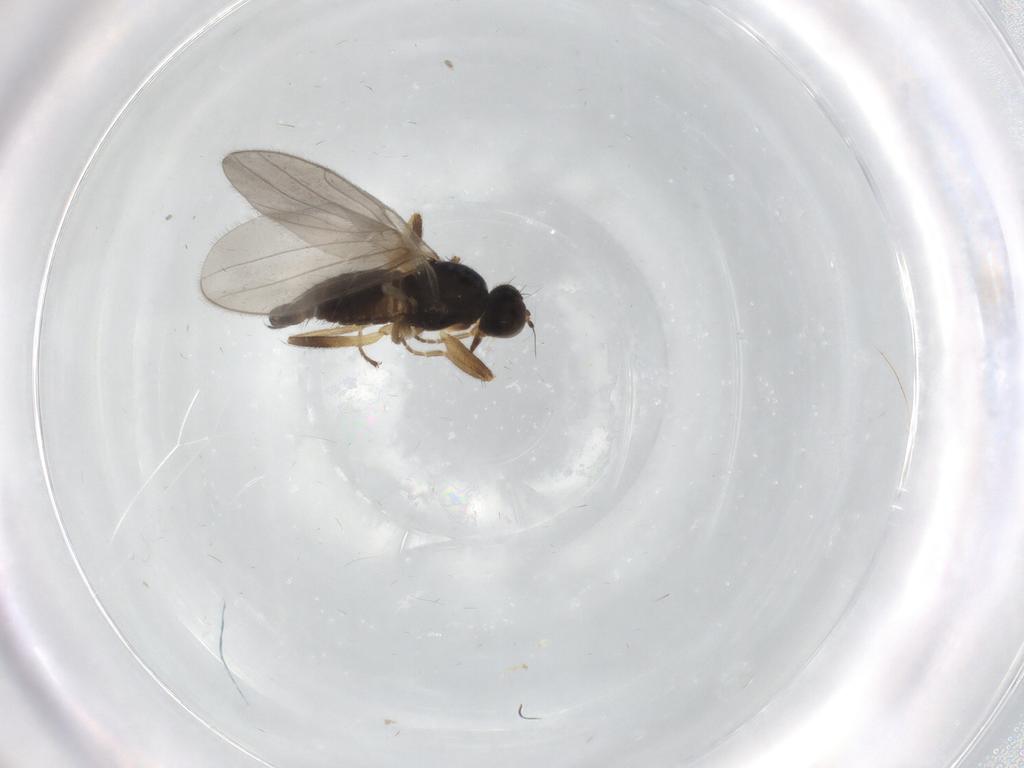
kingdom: Animalia
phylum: Arthropoda
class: Insecta
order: Diptera
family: Hybotidae
